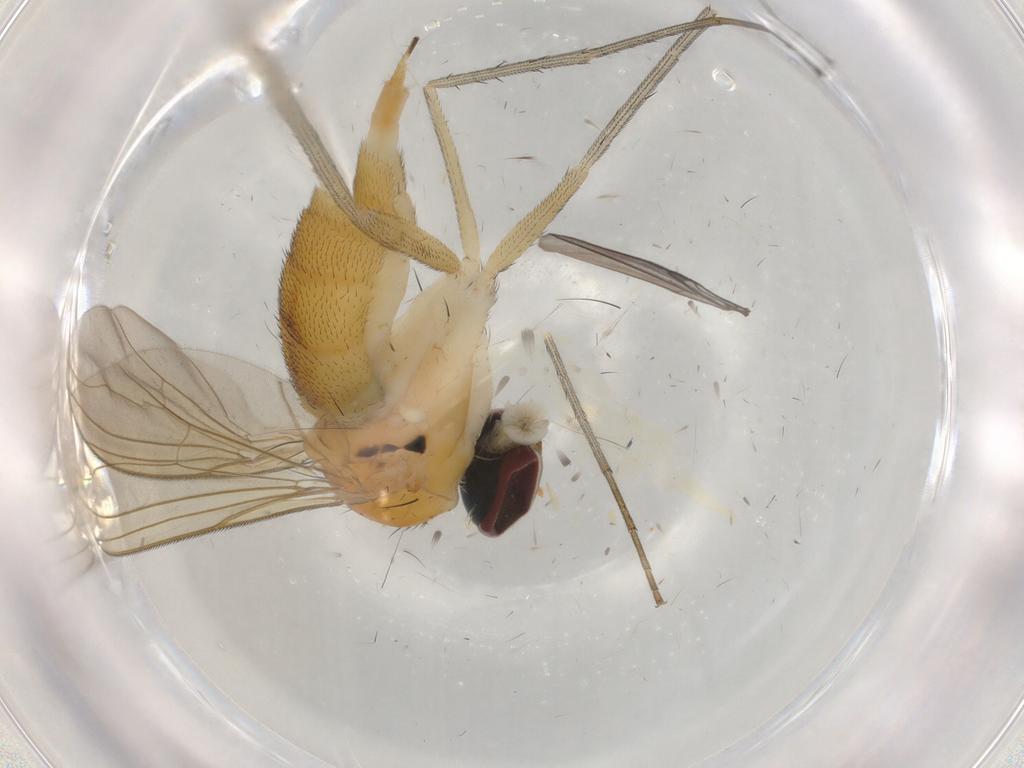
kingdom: Animalia
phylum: Arthropoda
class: Insecta
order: Diptera
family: Dolichopodidae
